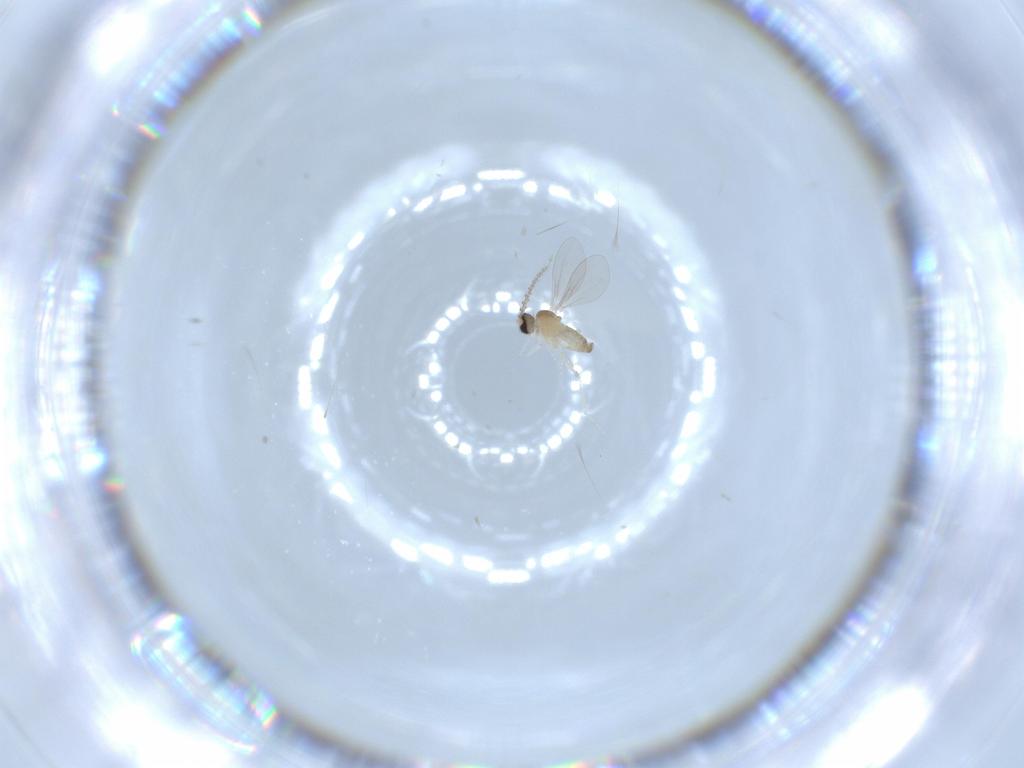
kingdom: Animalia
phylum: Arthropoda
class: Insecta
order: Diptera
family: Cecidomyiidae
